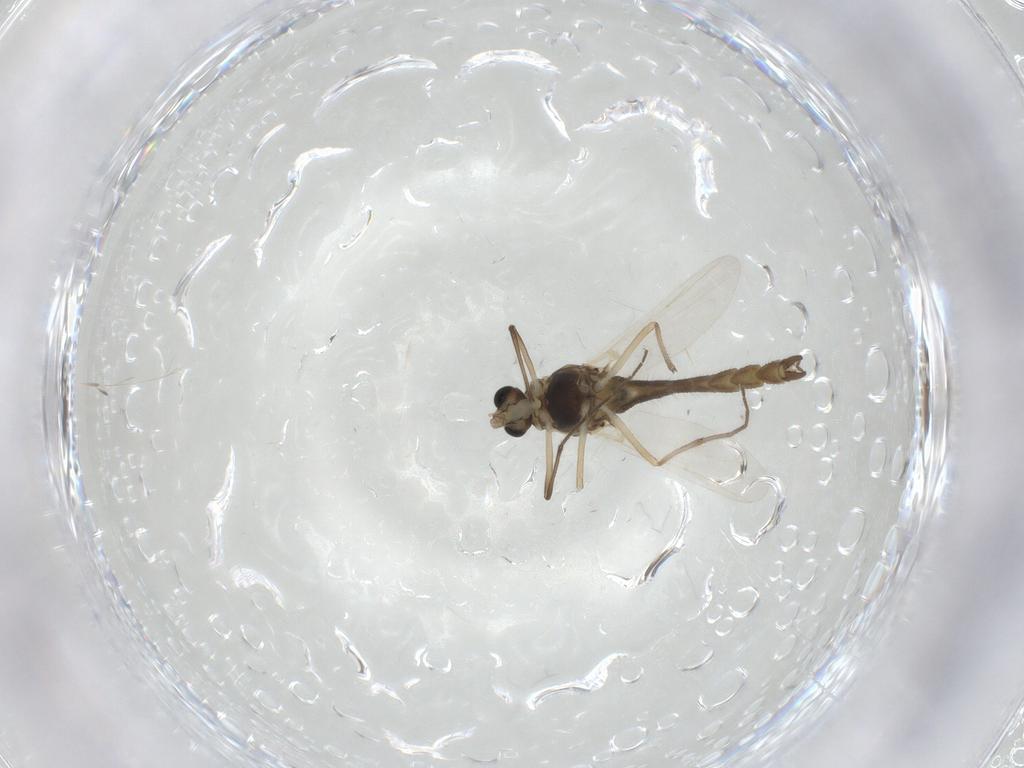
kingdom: Animalia
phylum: Arthropoda
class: Insecta
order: Diptera
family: Chironomidae
